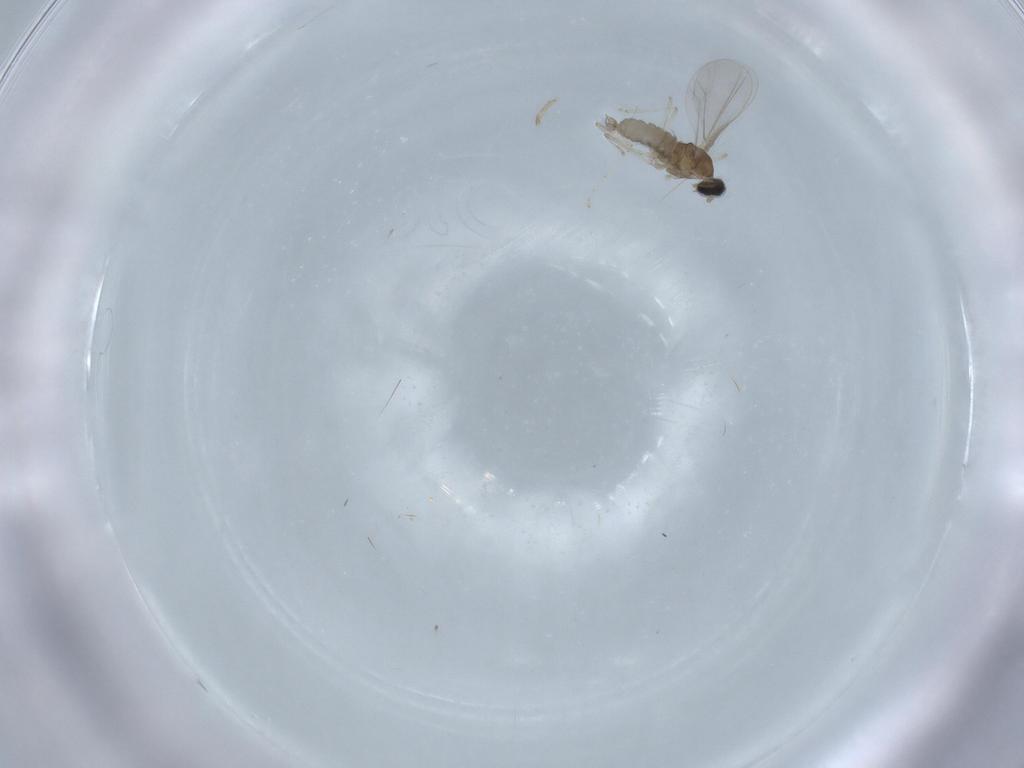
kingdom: Animalia
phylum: Arthropoda
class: Insecta
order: Diptera
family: Cecidomyiidae
